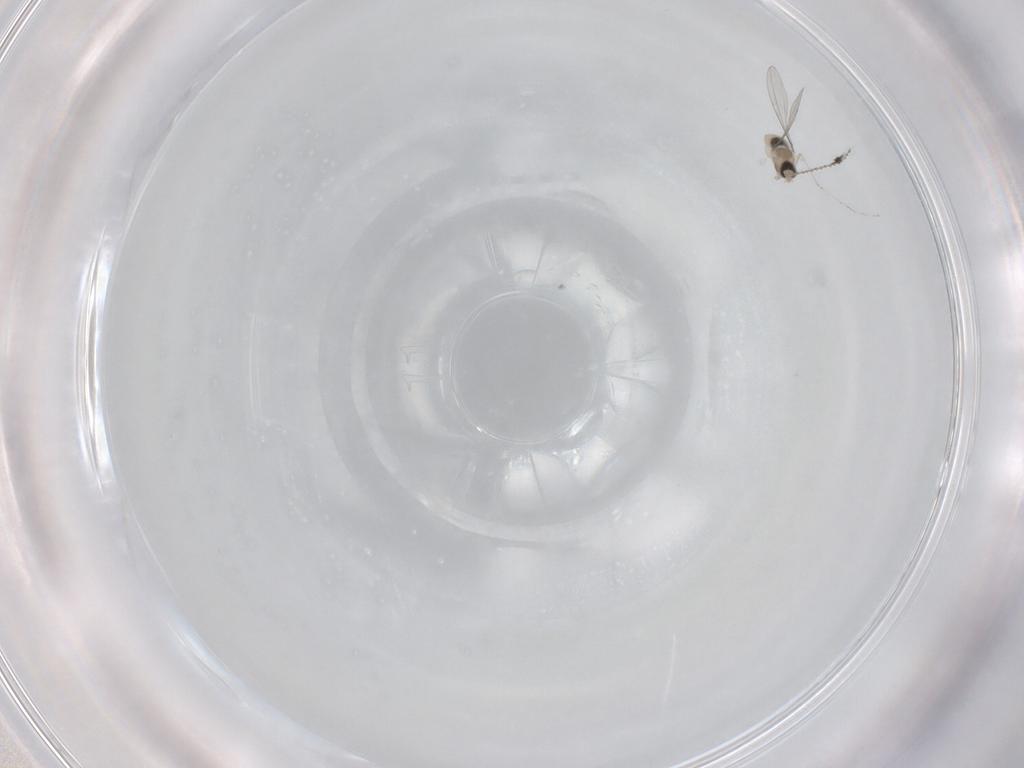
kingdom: Animalia
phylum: Arthropoda
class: Insecta
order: Diptera
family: Cecidomyiidae
